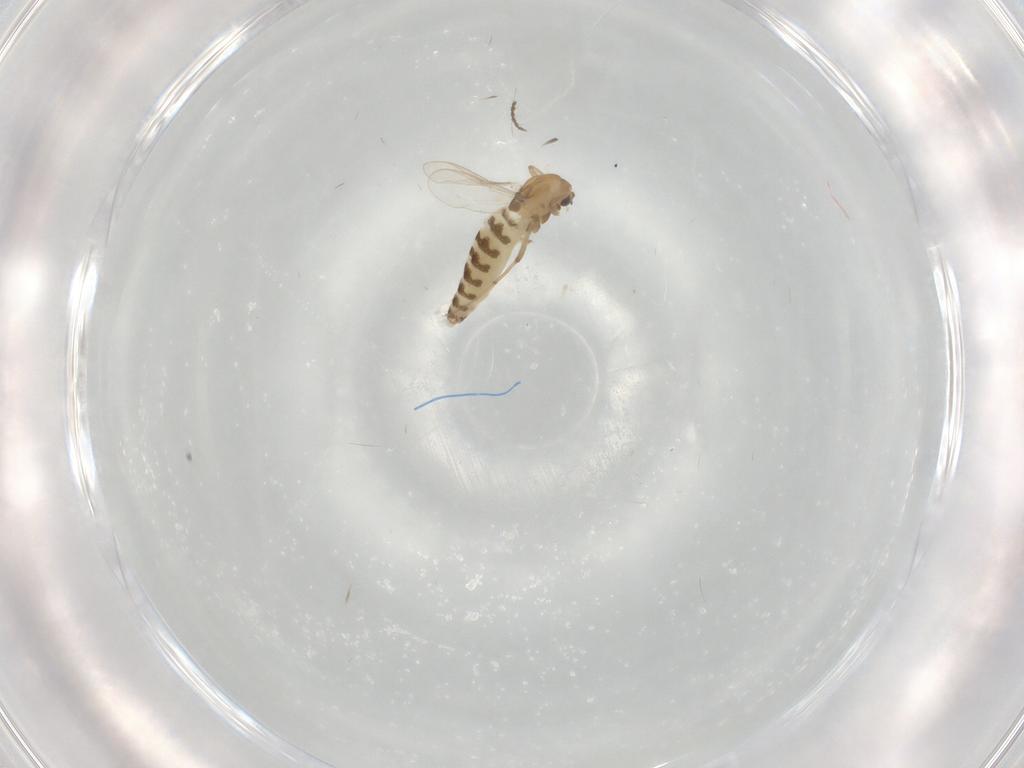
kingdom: Animalia
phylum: Arthropoda
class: Insecta
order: Diptera
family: Chironomidae
